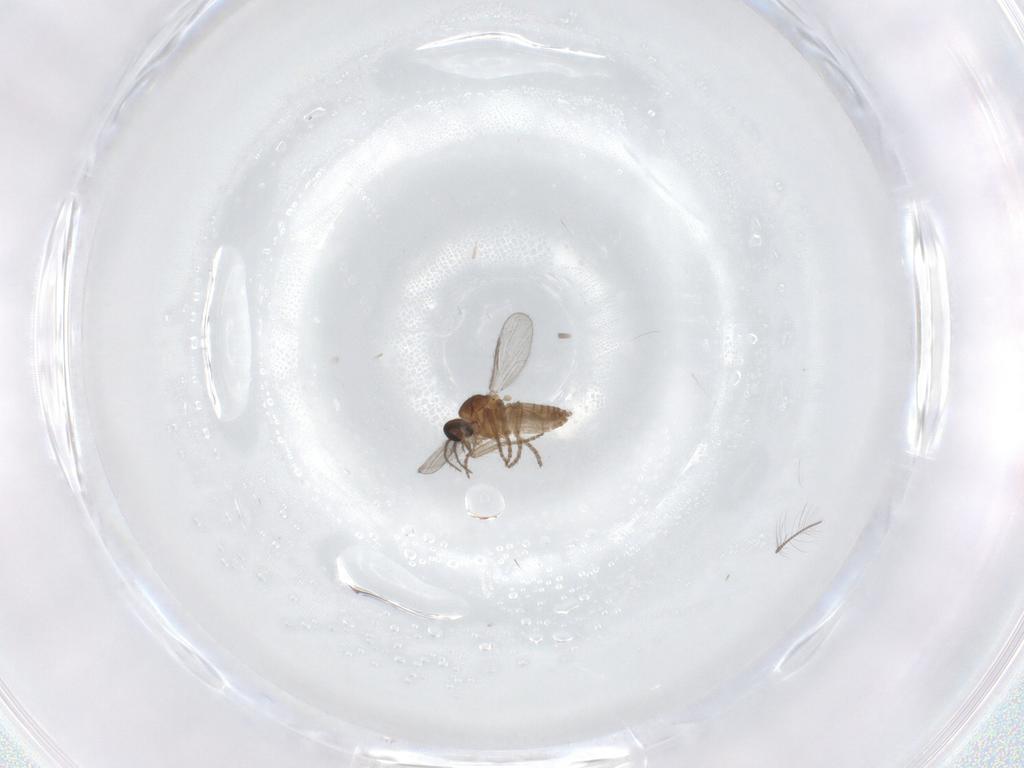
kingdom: Animalia
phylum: Arthropoda
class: Insecta
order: Diptera
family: Chironomidae
